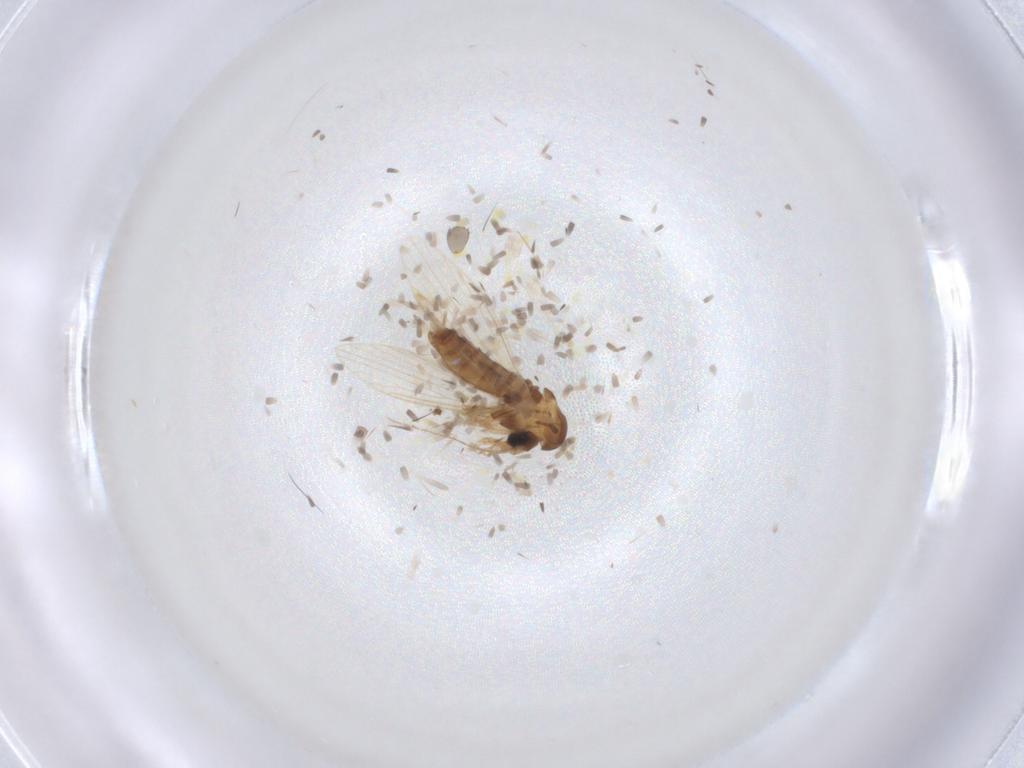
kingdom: Animalia
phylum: Arthropoda
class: Insecta
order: Diptera
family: Psychodidae
